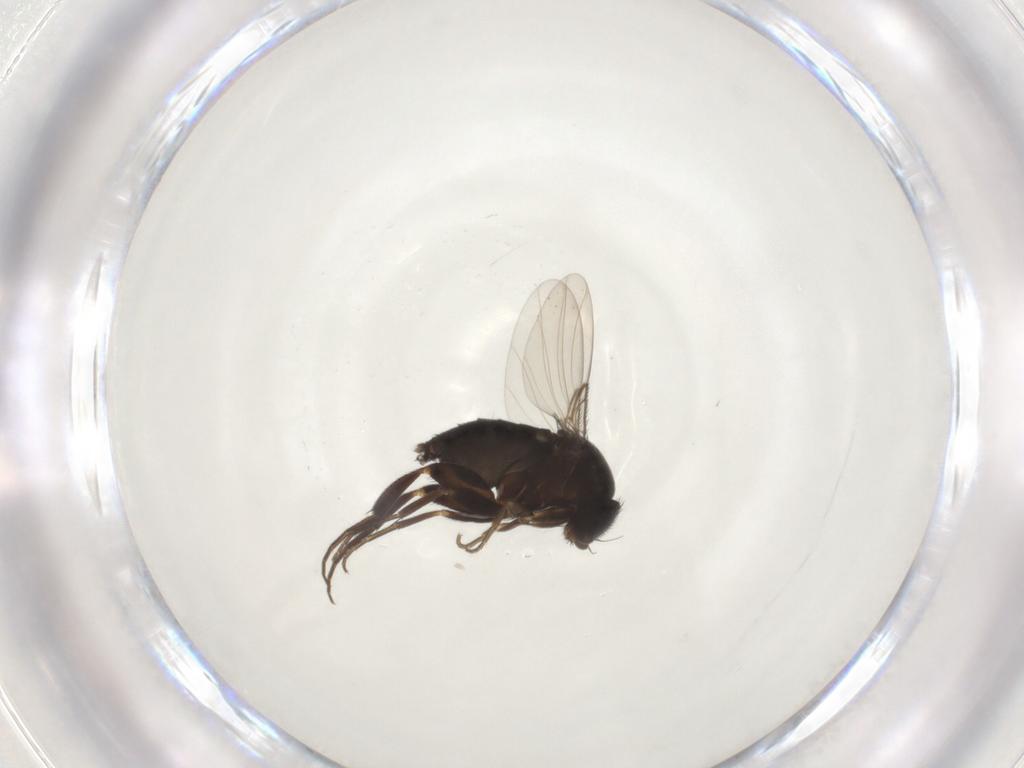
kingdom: Animalia
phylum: Arthropoda
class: Insecta
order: Diptera
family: Phoridae
